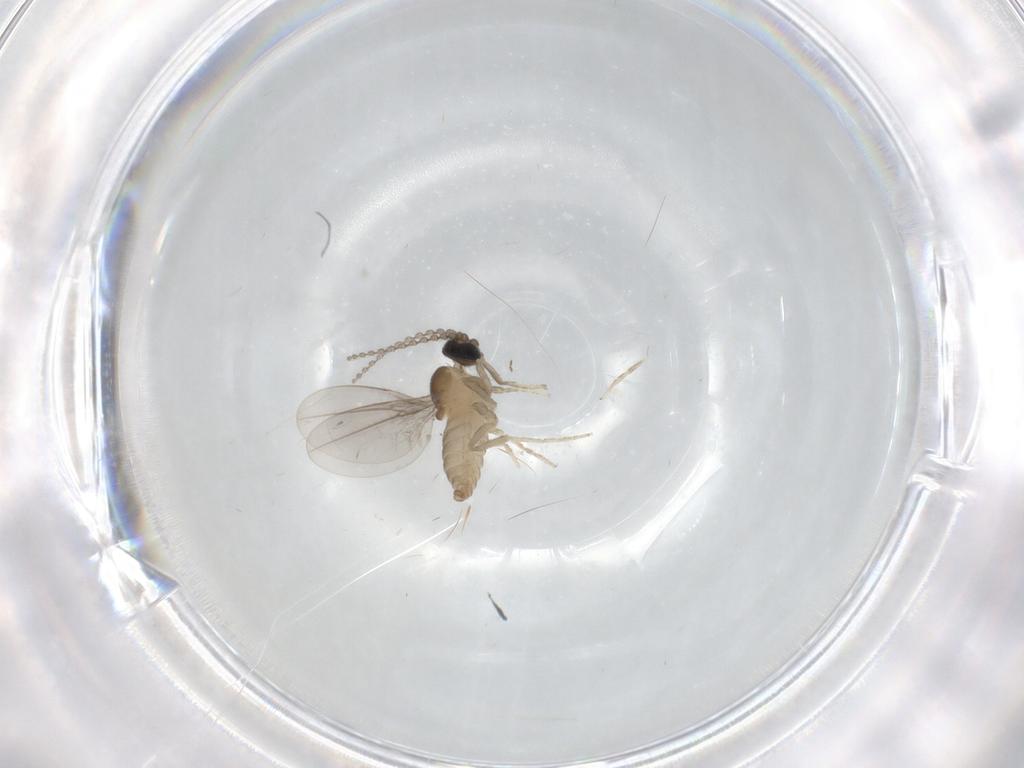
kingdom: Animalia
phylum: Arthropoda
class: Insecta
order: Diptera
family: Cecidomyiidae
